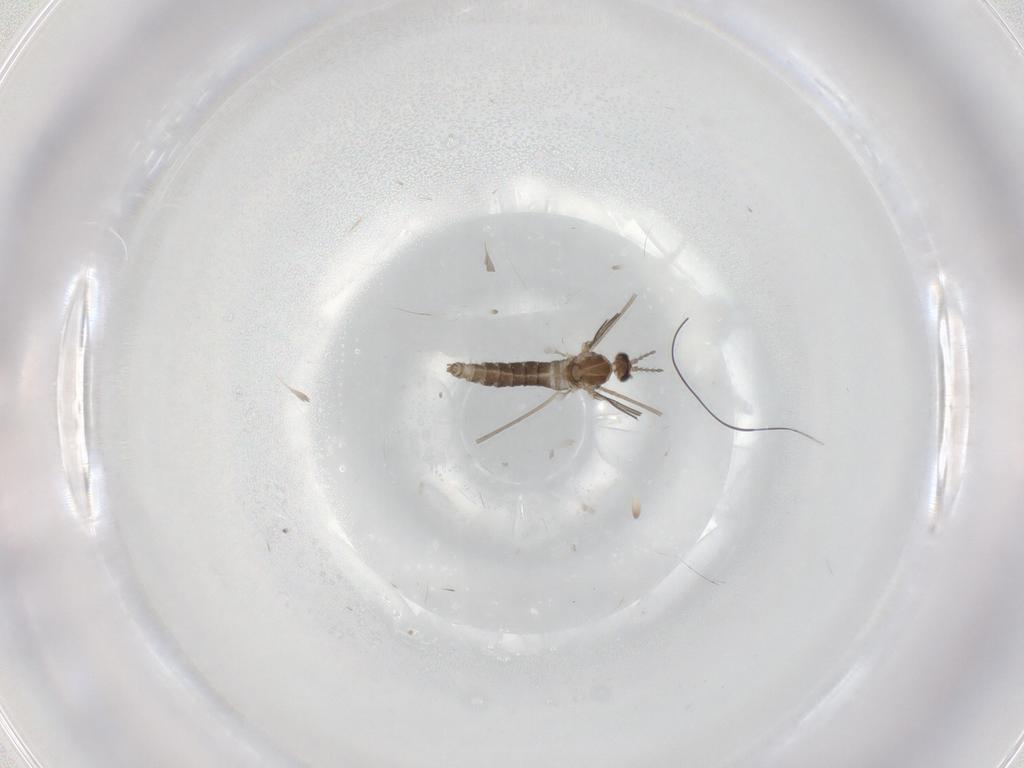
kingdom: Animalia
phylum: Arthropoda
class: Insecta
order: Diptera
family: Cecidomyiidae
